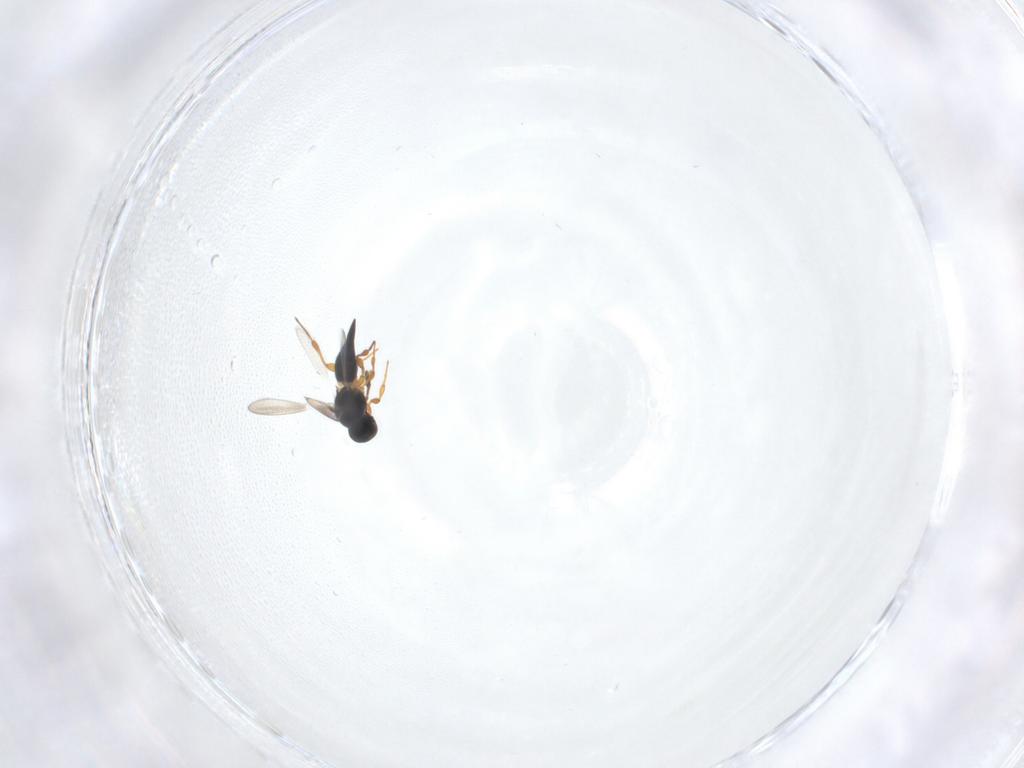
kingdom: Animalia
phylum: Arthropoda
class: Insecta
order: Hymenoptera
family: Platygastridae
